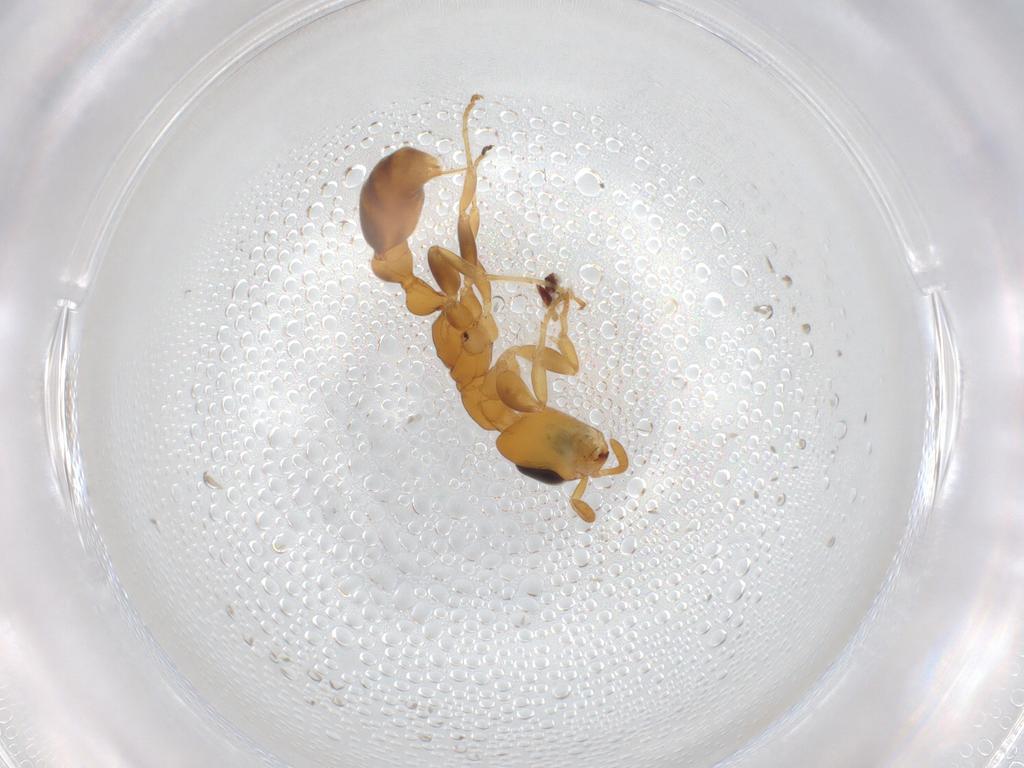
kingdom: Animalia
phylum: Arthropoda
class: Insecta
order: Hymenoptera
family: Formicidae
